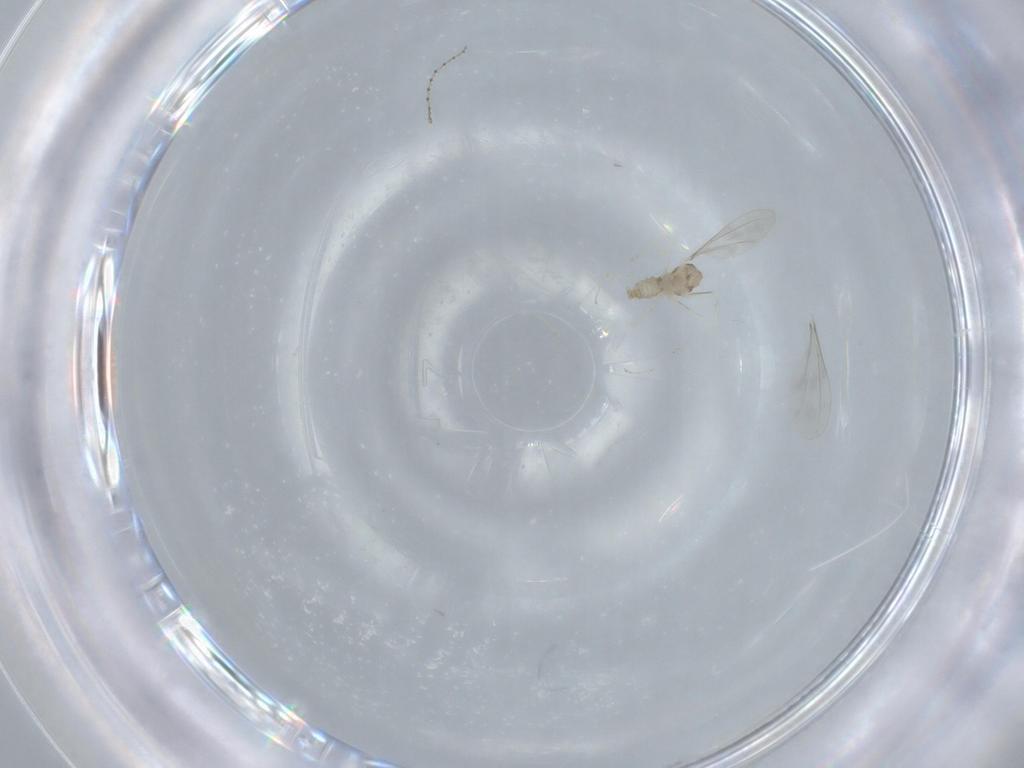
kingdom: Animalia
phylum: Arthropoda
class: Insecta
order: Diptera
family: Cecidomyiidae
